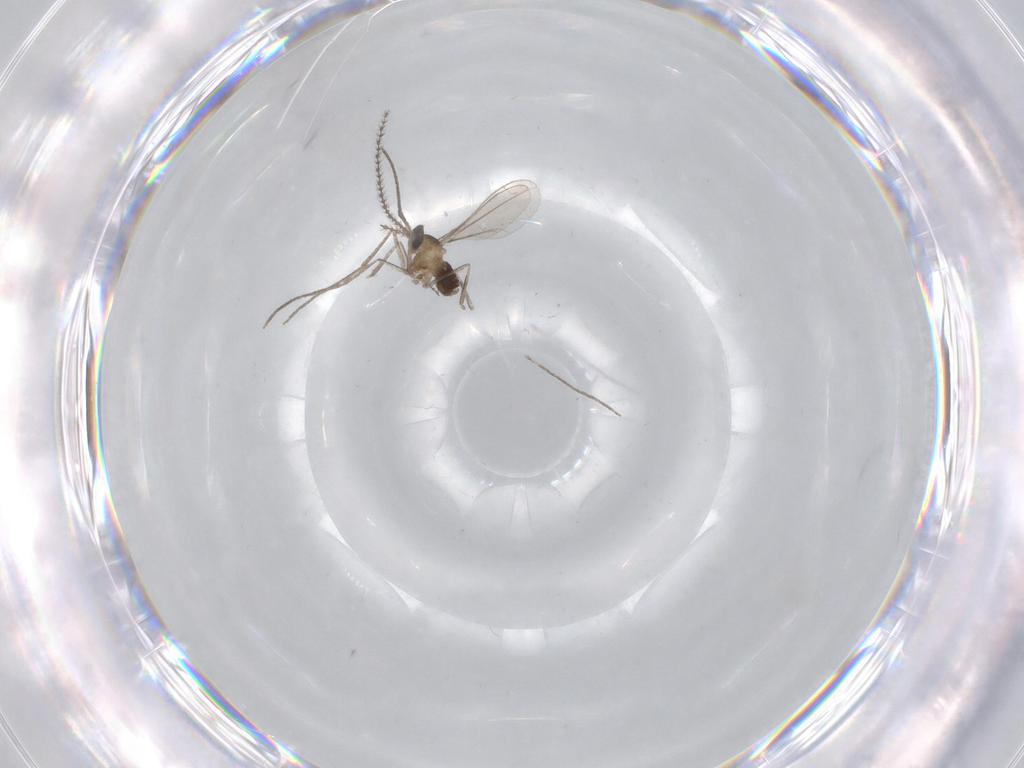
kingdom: Animalia
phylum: Arthropoda
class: Insecta
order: Diptera
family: Cecidomyiidae
